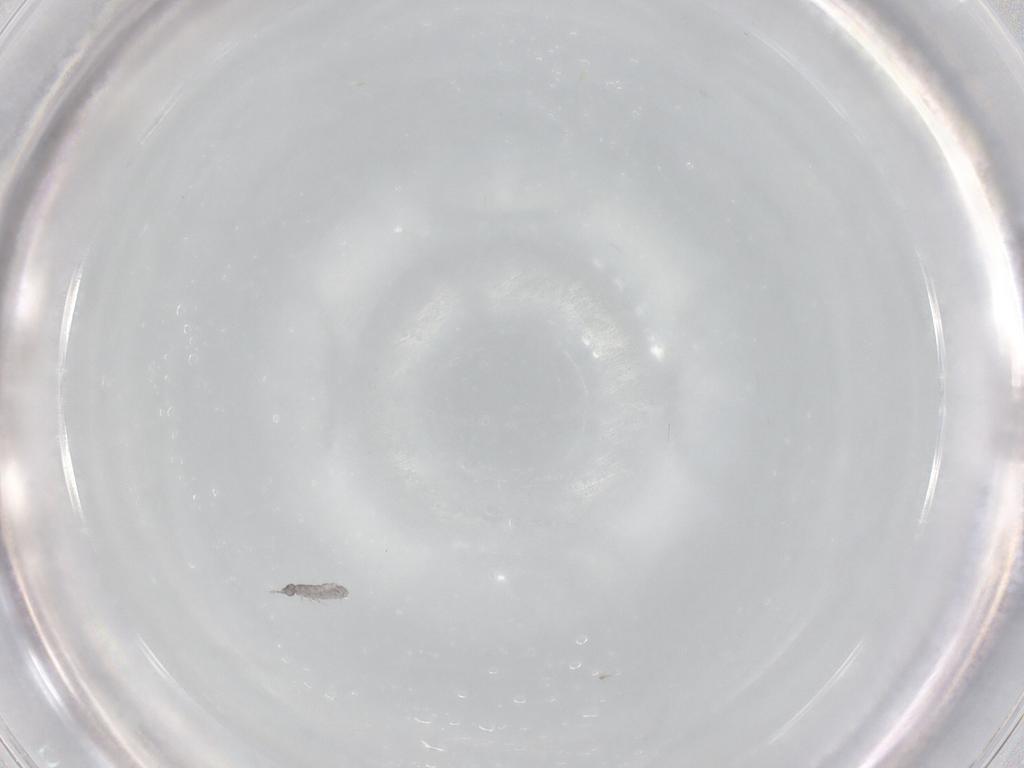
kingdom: Animalia
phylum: Arthropoda
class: Collembola
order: Entomobryomorpha
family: Isotomidae
